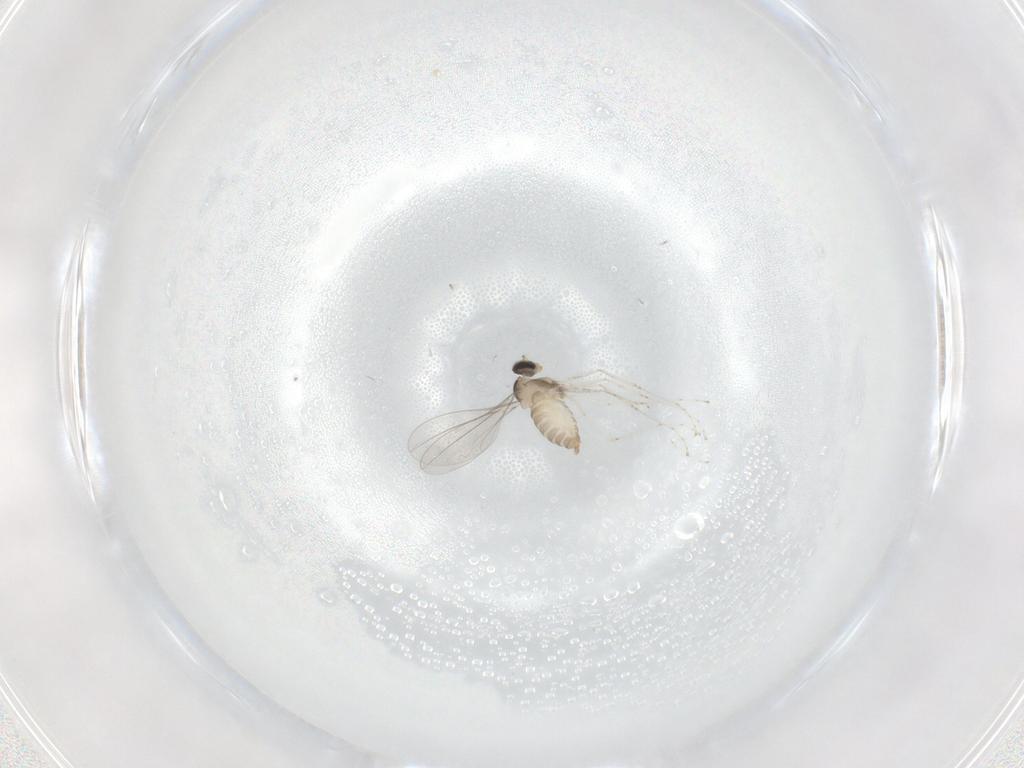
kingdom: Animalia
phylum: Arthropoda
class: Insecta
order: Diptera
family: Cecidomyiidae
